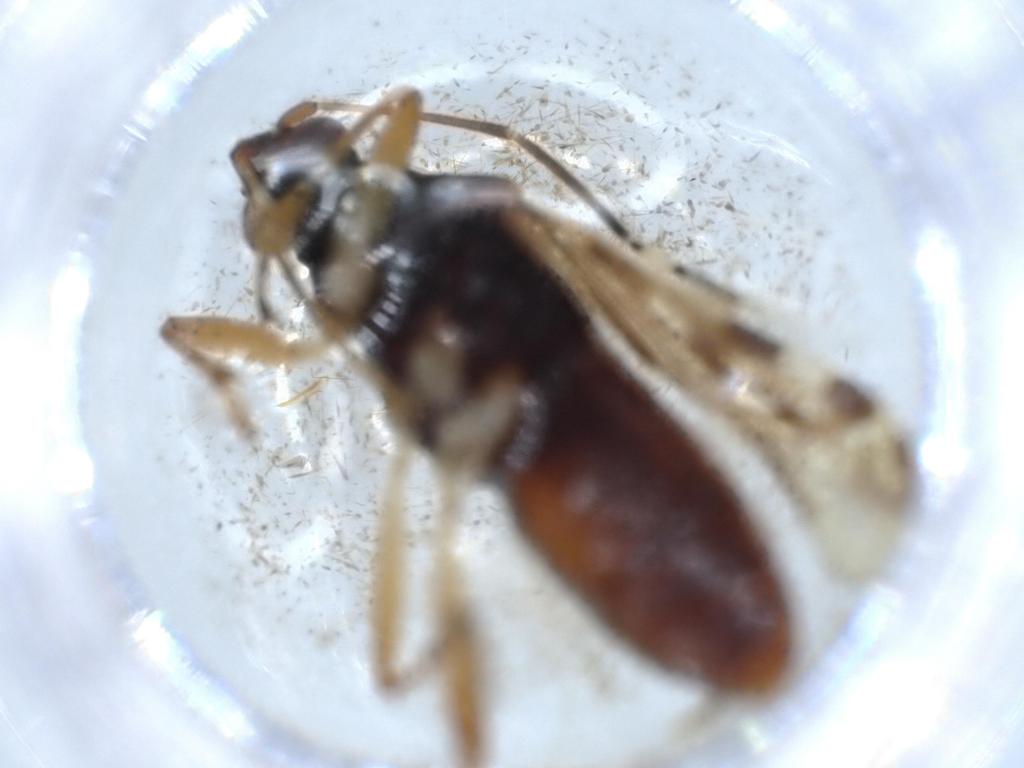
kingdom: Animalia
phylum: Arthropoda
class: Insecta
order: Hemiptera
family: Rhyparochromidae
